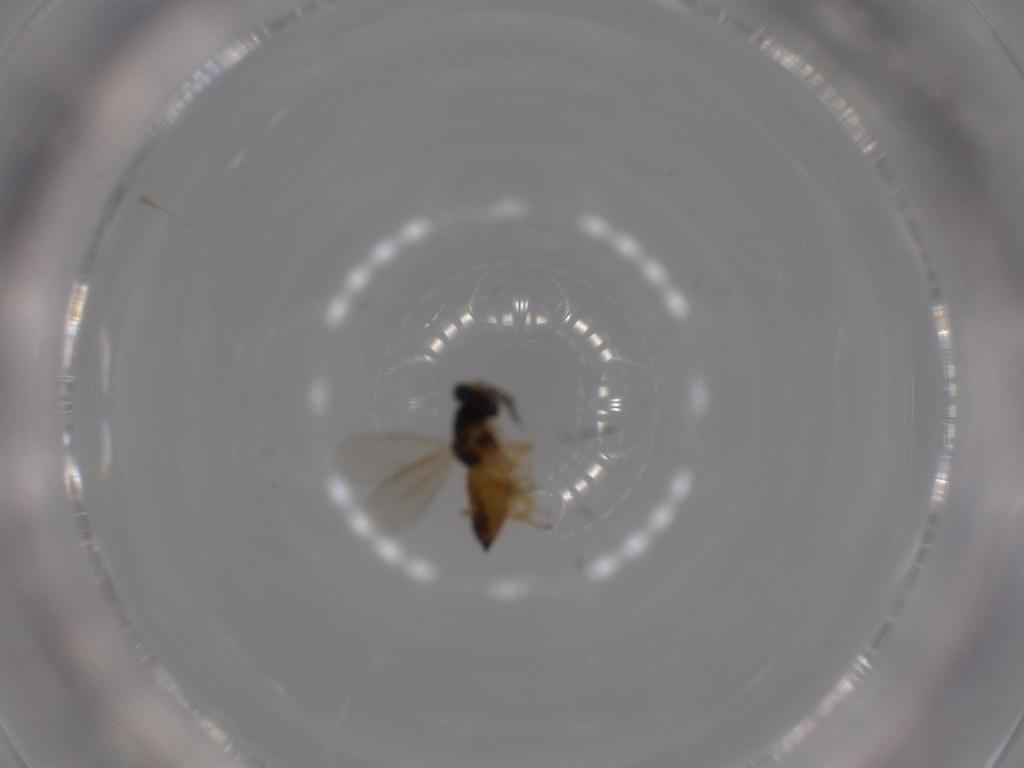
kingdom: Animalia
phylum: Arthropoda
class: Insecta
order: Hymenoptera
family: Eulophidae
